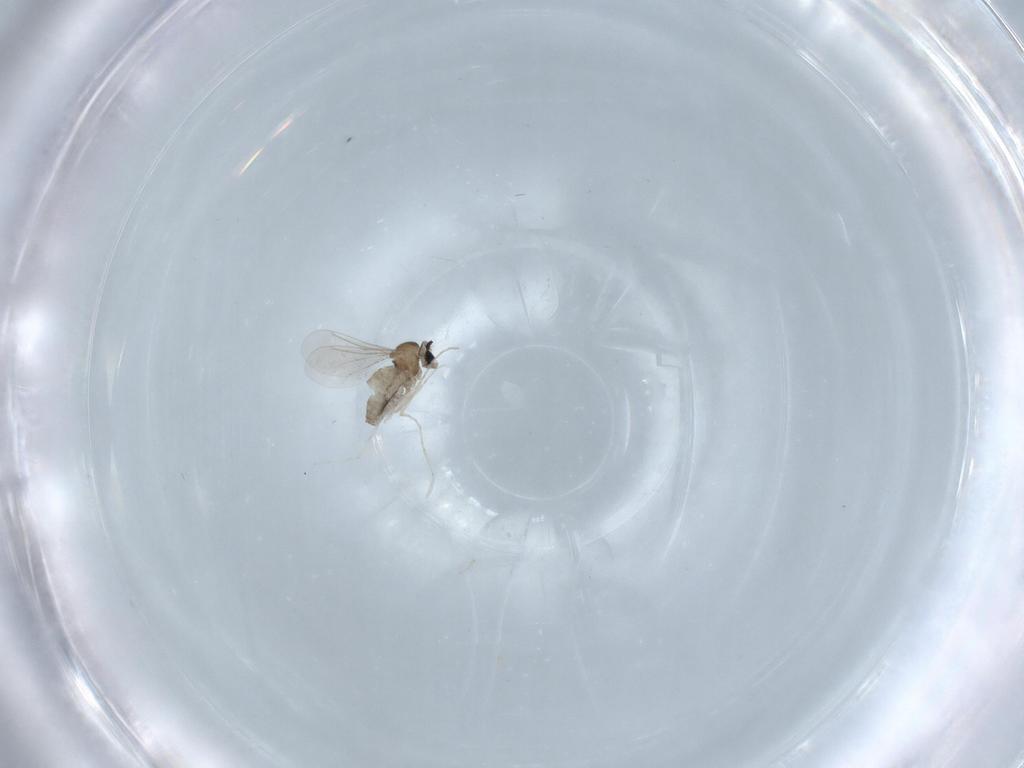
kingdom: Animalia
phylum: Arthropoda
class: Insecta
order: Diptera
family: Cecidomyiidae
